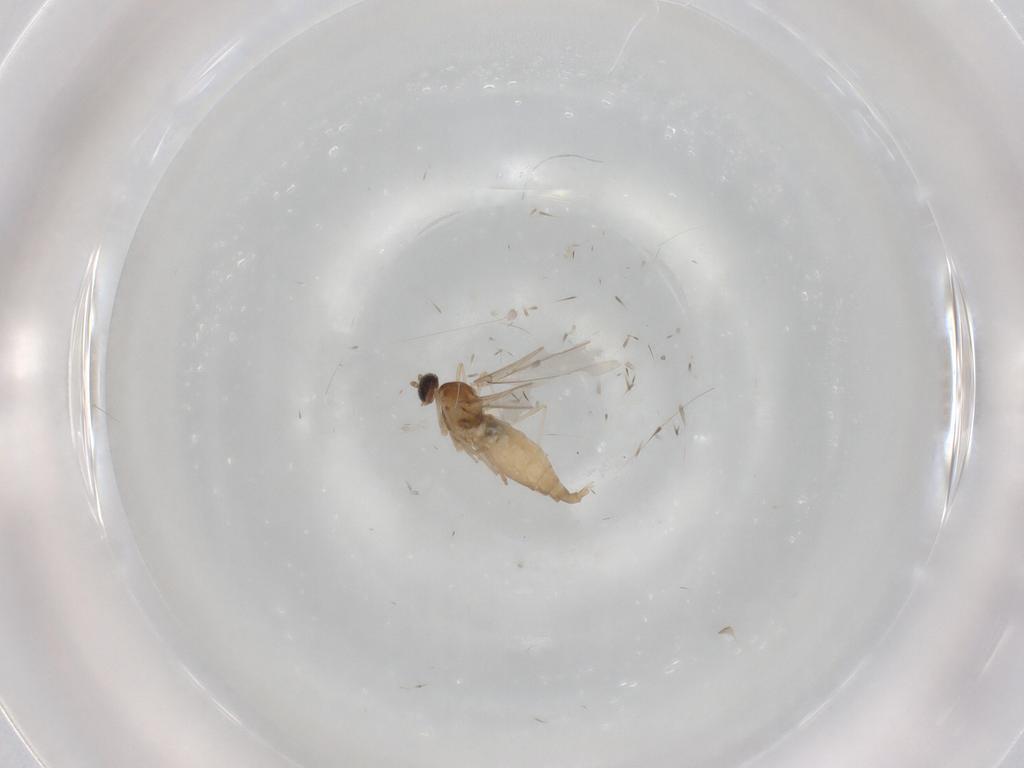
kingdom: Animalia
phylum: Arthropoda
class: Insecta
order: Diptera
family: Cecidomyiidae
